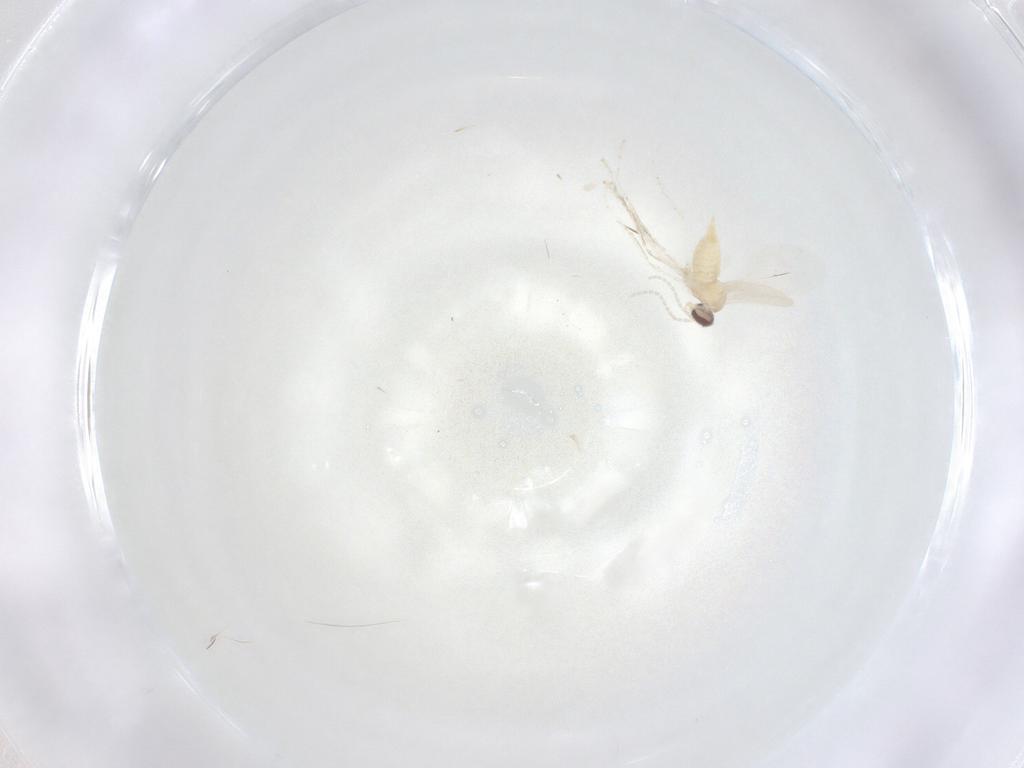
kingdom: Animalia
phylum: Arthropoda
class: Insecta
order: Diptera
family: Cecidomyiidae
